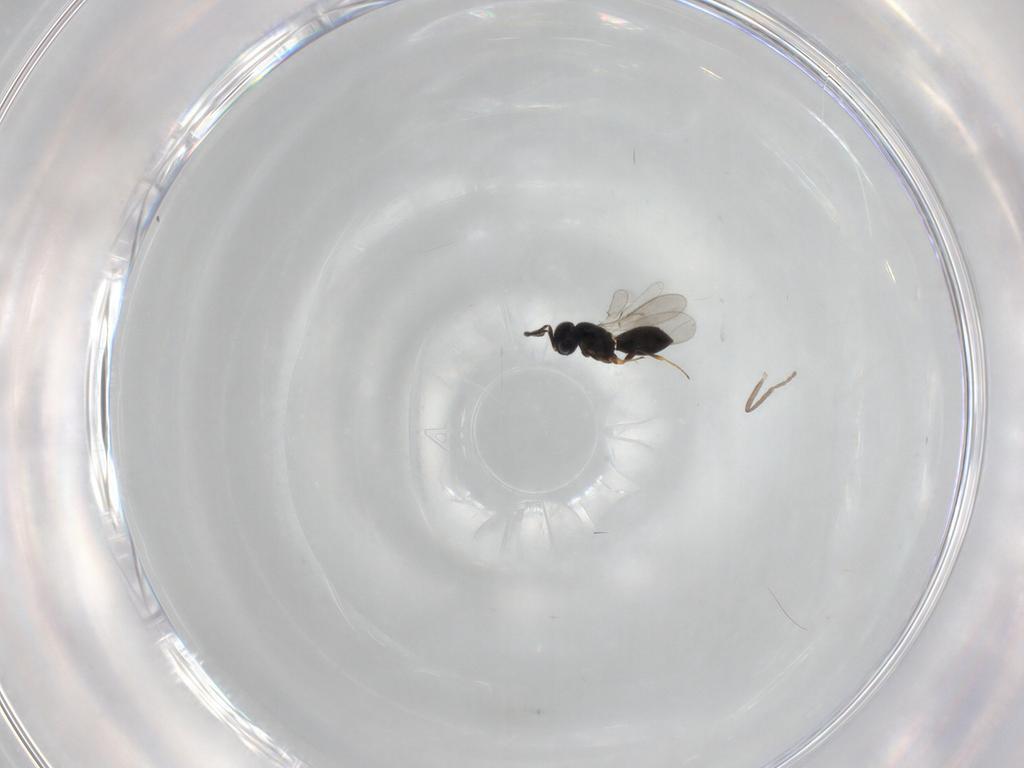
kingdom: Animalia
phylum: Arthropoda
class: Insecta
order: Hymenoptera
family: Scelionidae
